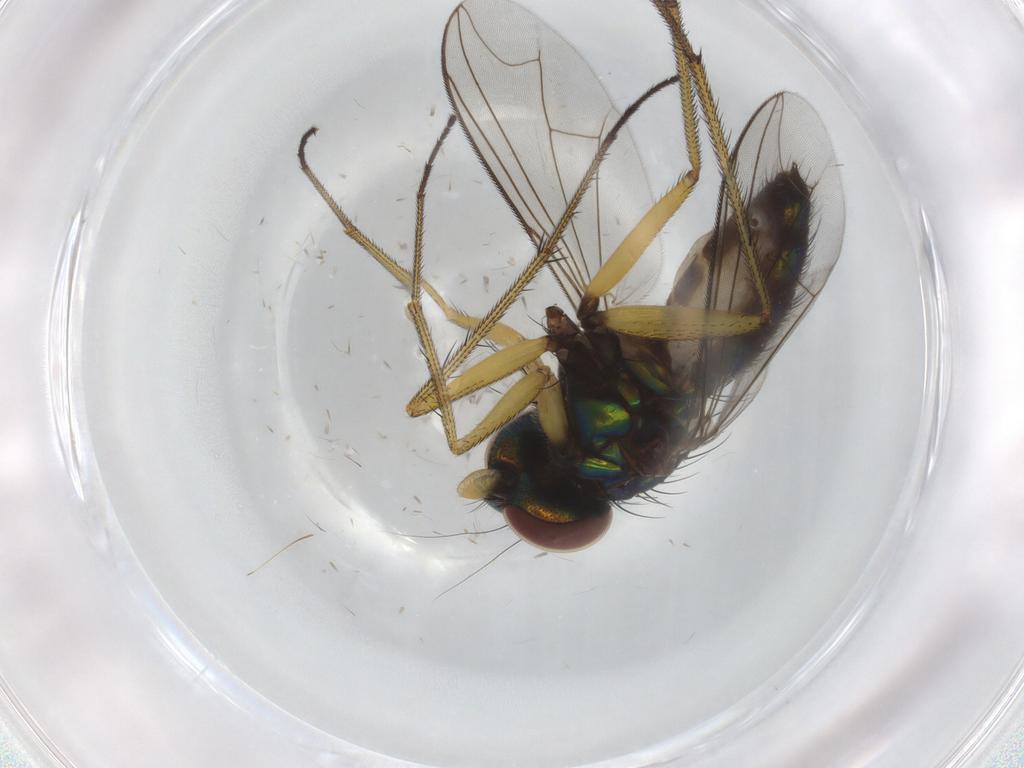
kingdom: Animalia
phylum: Arthropoda
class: Insecta
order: Diptera
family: Dolichopodidae
